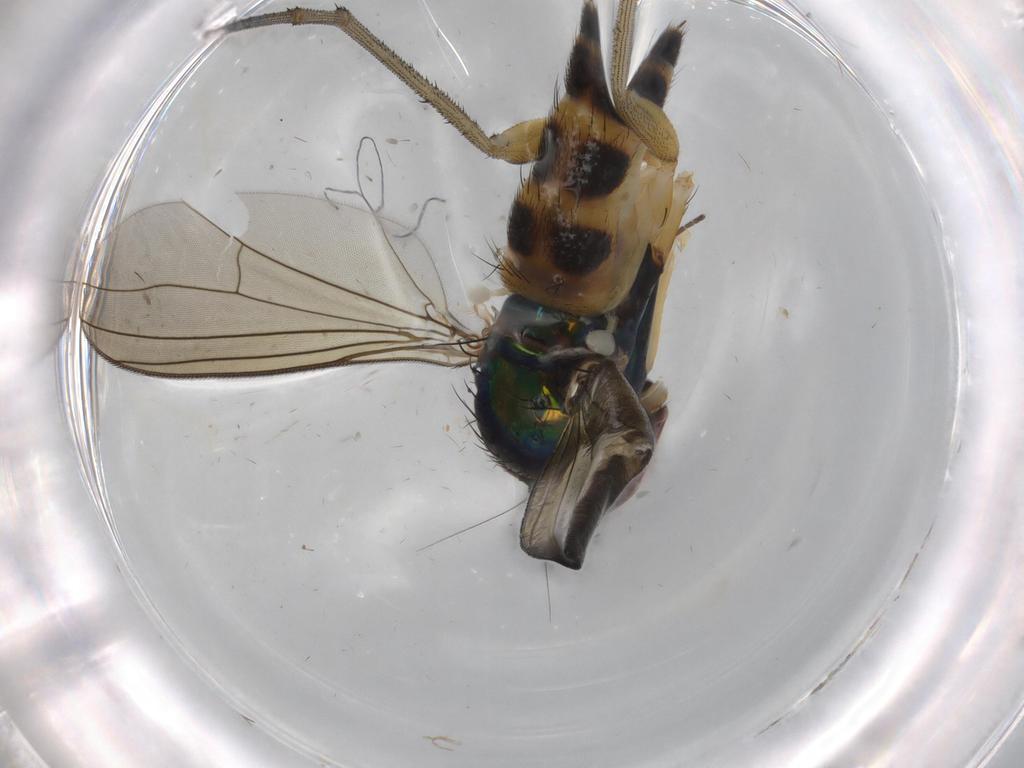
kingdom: Animalia
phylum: Arthropoda
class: Insecta
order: Diptera
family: Dolichopodidae
